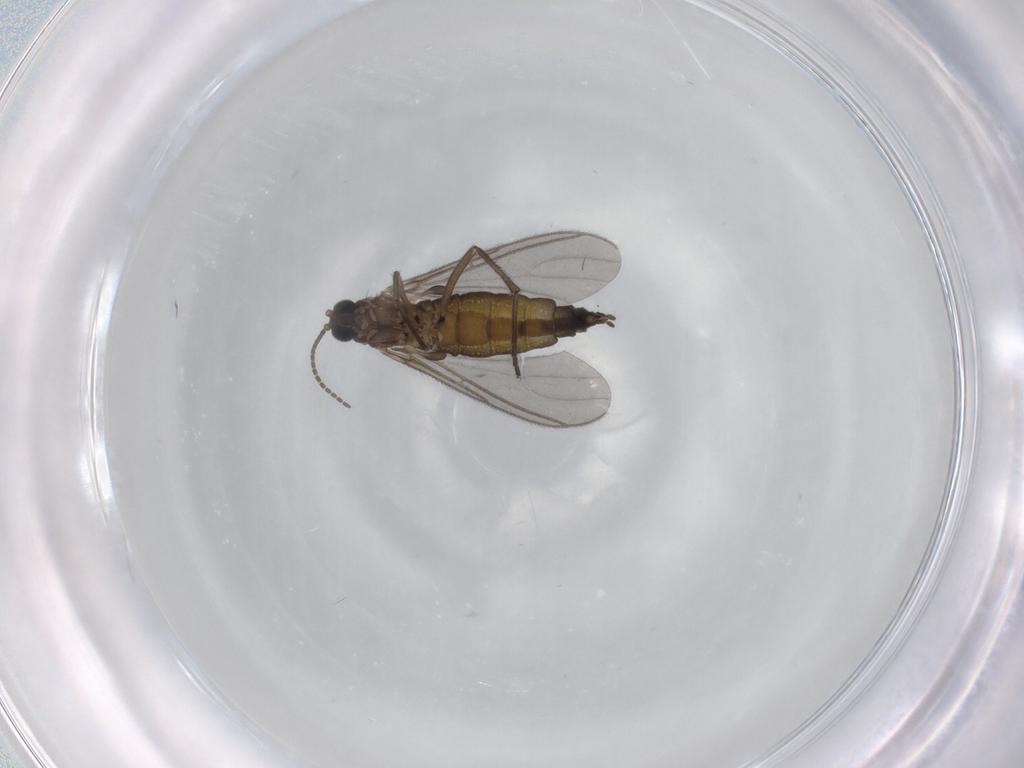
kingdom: Animalia
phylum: Arthropoda
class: Insecta
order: Diptera
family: Sciaridae
